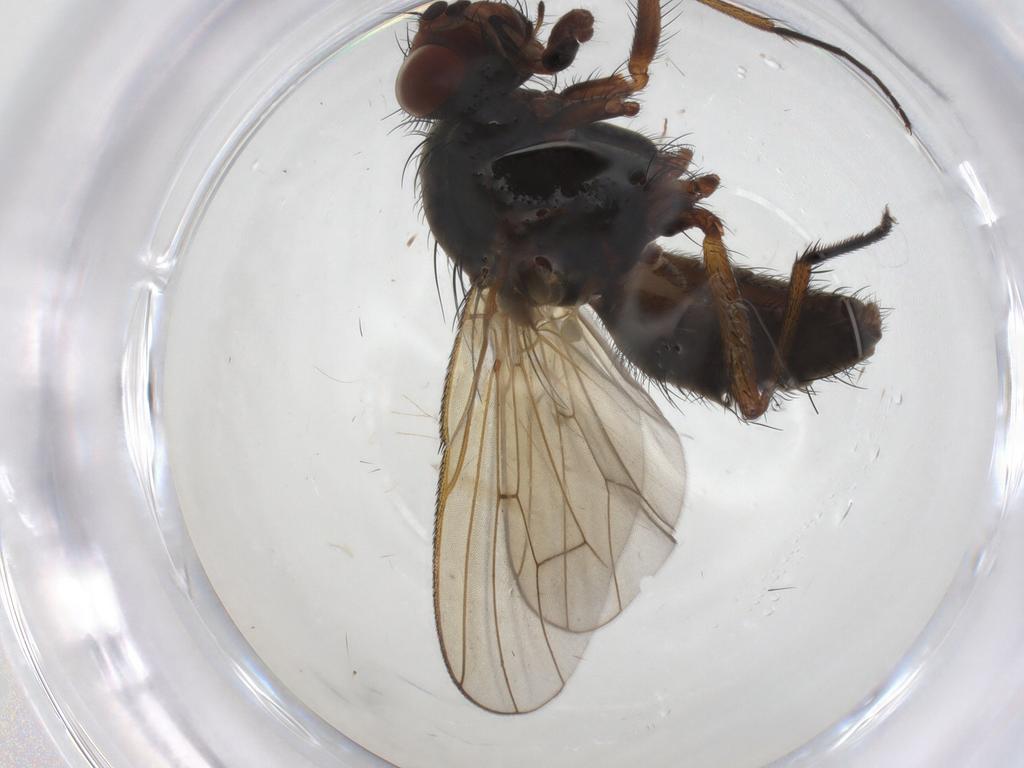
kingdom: Animalia
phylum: Arthropoda
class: Insecta
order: Diptera
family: Anthomyiidae
